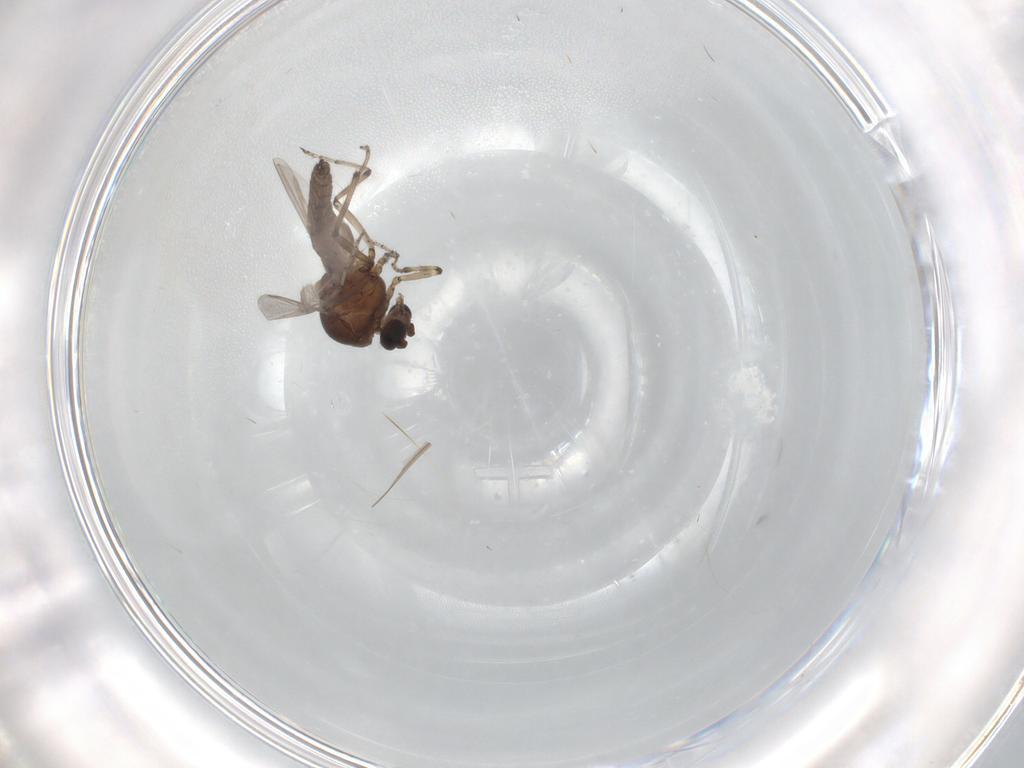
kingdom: Animalia
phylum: Arthropoda
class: Insecta
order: Diptera
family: Ceratopogonidae
